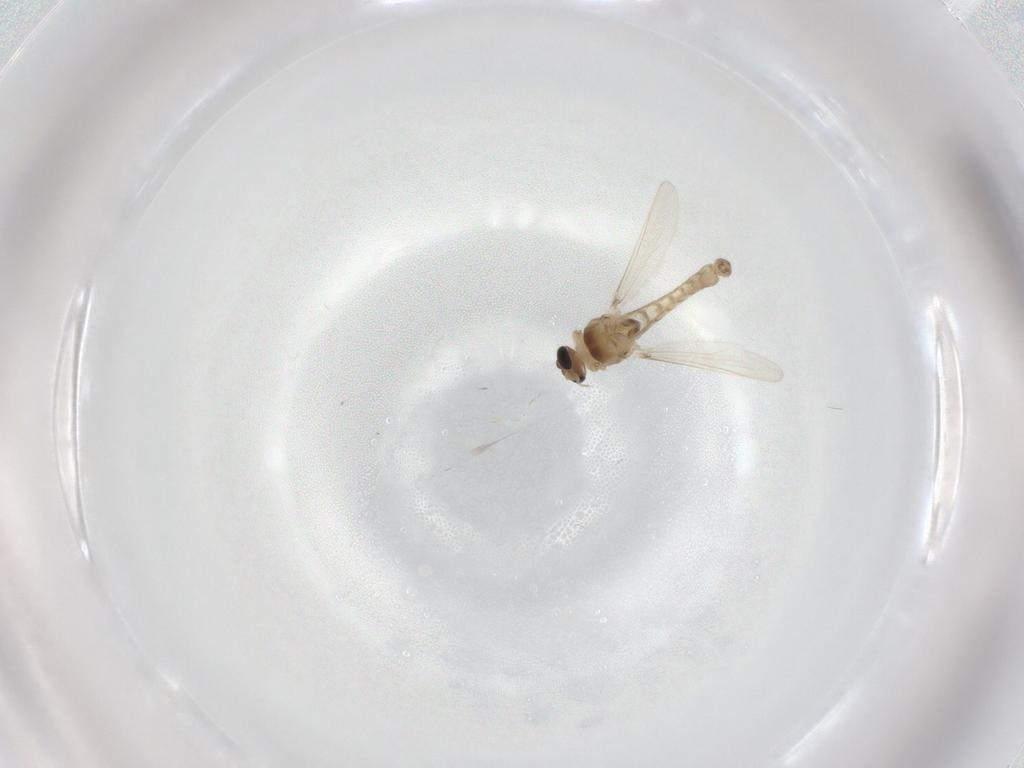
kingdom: Animalia
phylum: Arthropoda
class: Insecta
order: Diptera
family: Chironomidae
